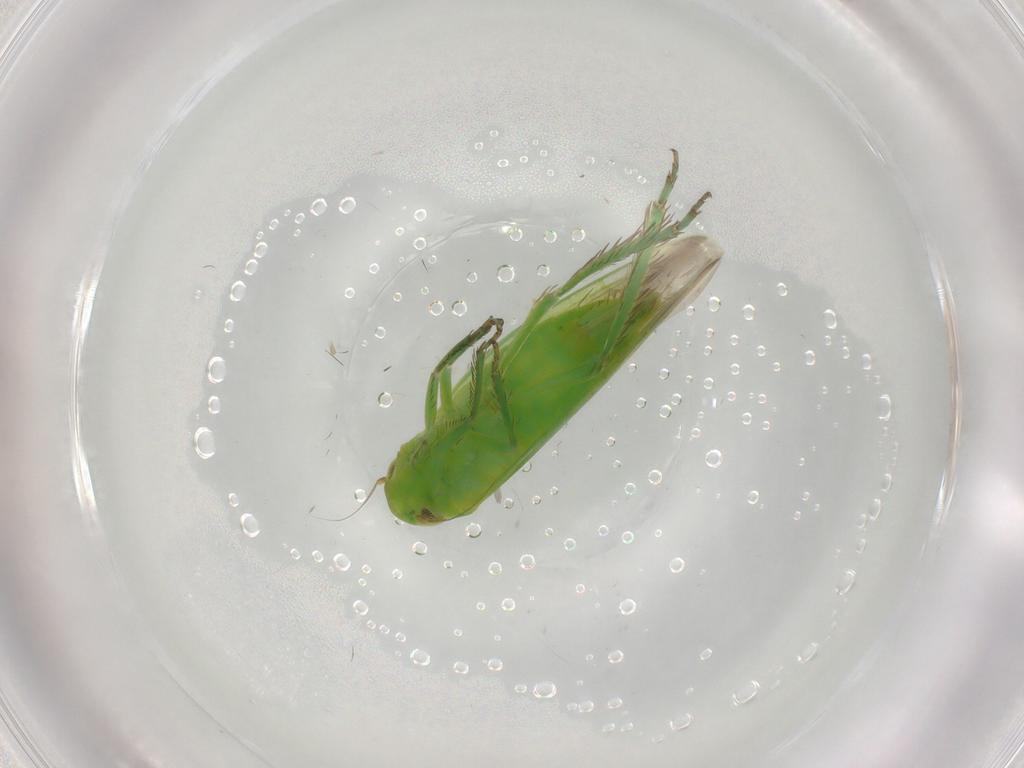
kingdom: Animalia
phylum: Arthropoda
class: Insecta
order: Hemiptera
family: Cicadellidae
